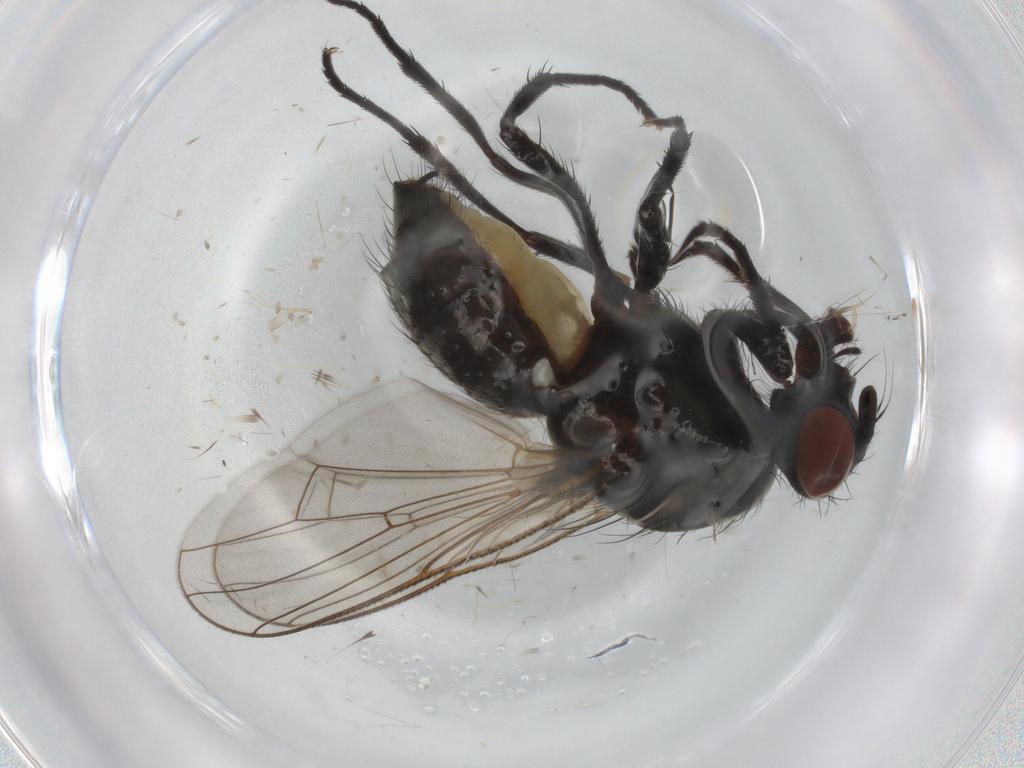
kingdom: Animalia
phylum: Arthropoda
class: Insecta
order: Diptera
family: Anthomyiidae
